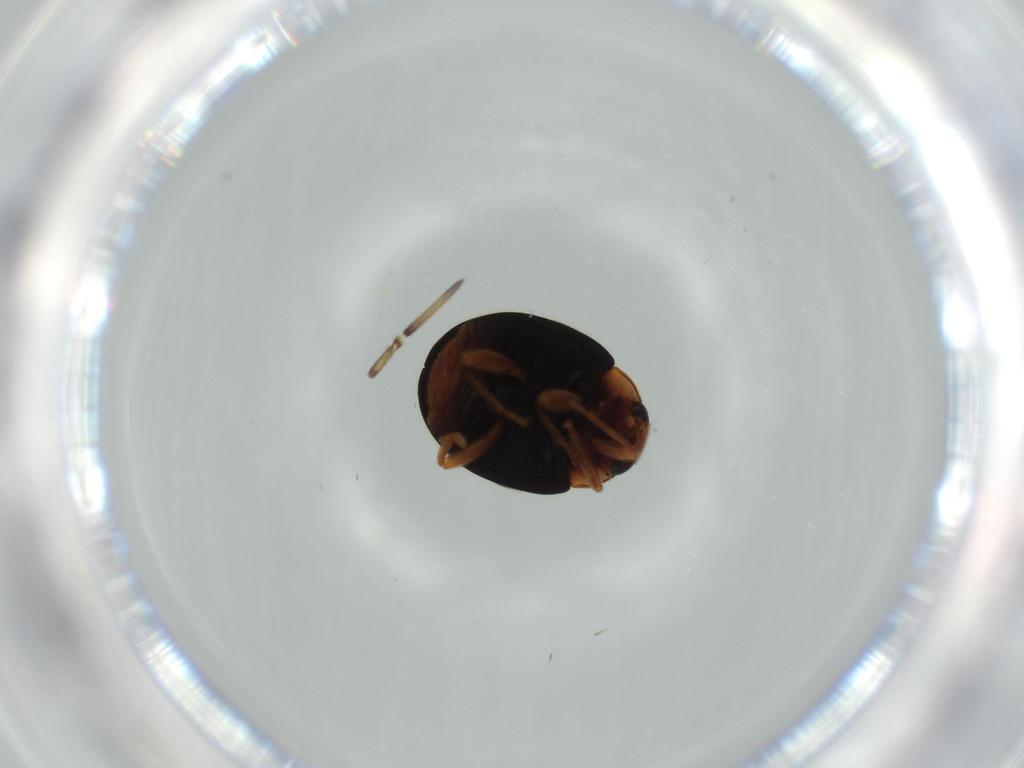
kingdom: Animalia
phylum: Arthropoda
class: Insecta
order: Coleoptera
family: Coccinellidae
